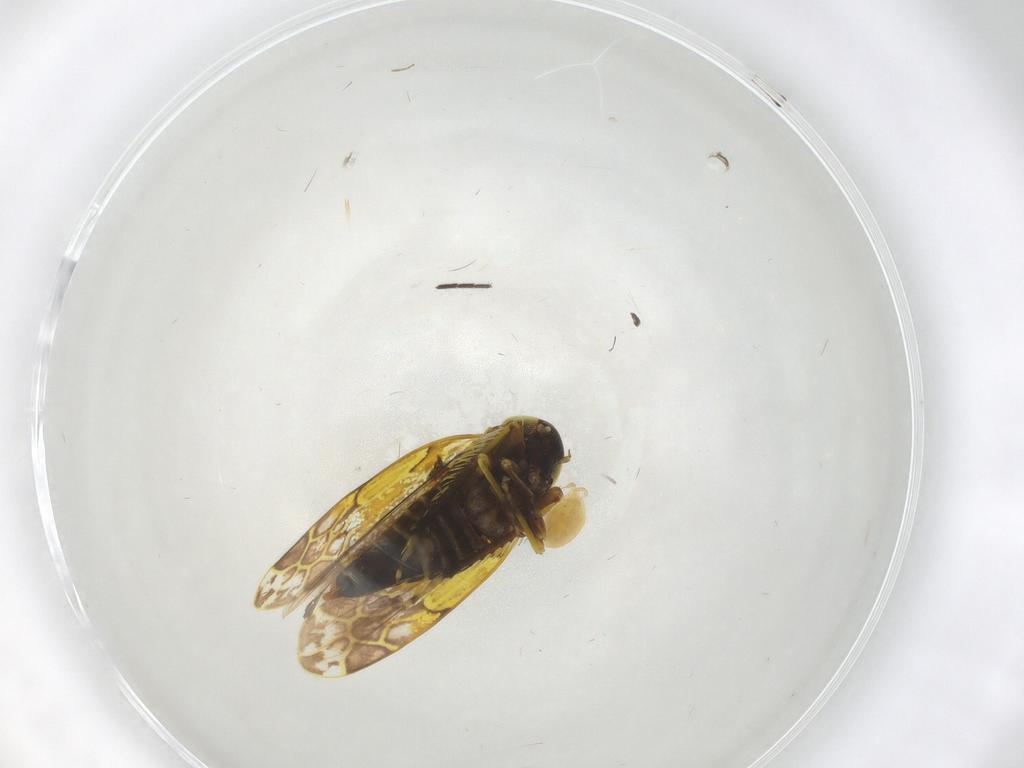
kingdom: Animalia
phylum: Arthropoda
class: Insecta
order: Hemiptera
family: Cicadellidae
